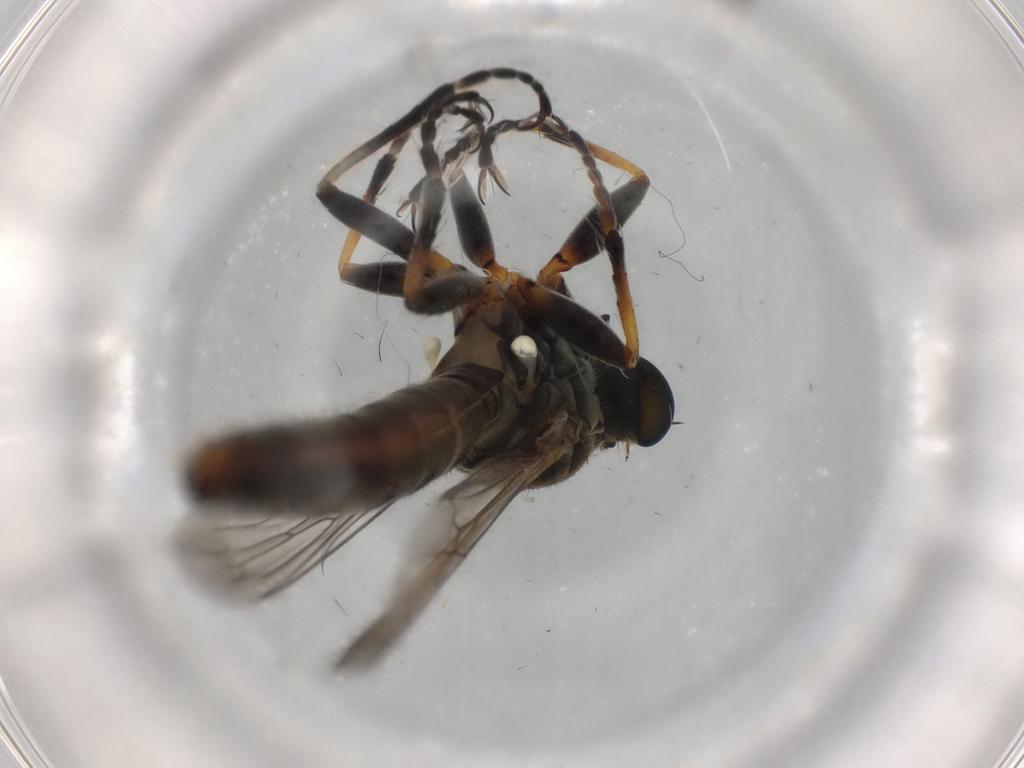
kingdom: Animalia
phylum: Arthropoda
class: Insecta
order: Diptera
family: Asilidae
